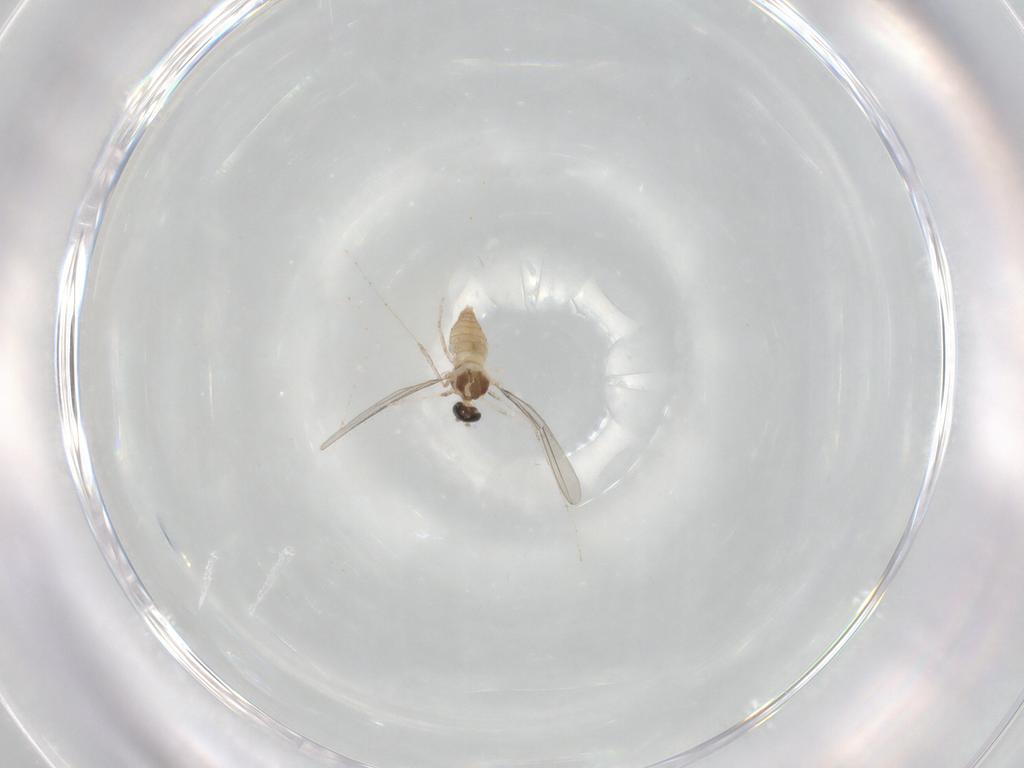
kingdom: Animalia
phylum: Arthropoda
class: Insecta
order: Diptera
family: Cecidomyiidae
